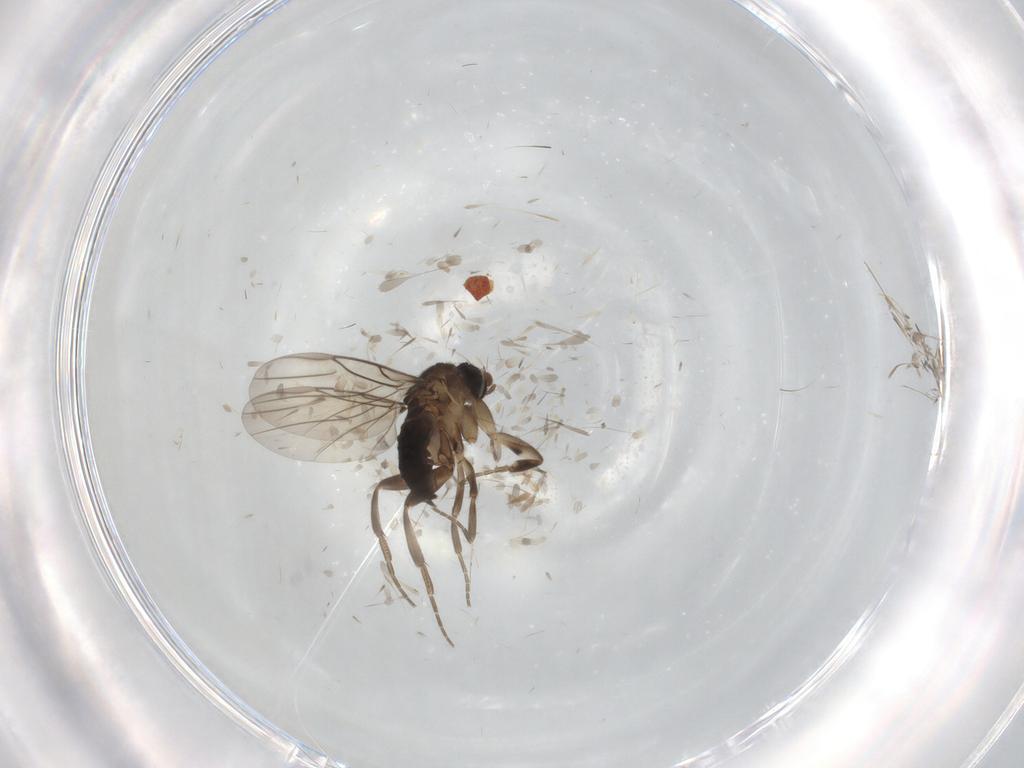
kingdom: Animalia
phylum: Arthropoda
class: Insecta
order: Diptera
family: Phoridae
